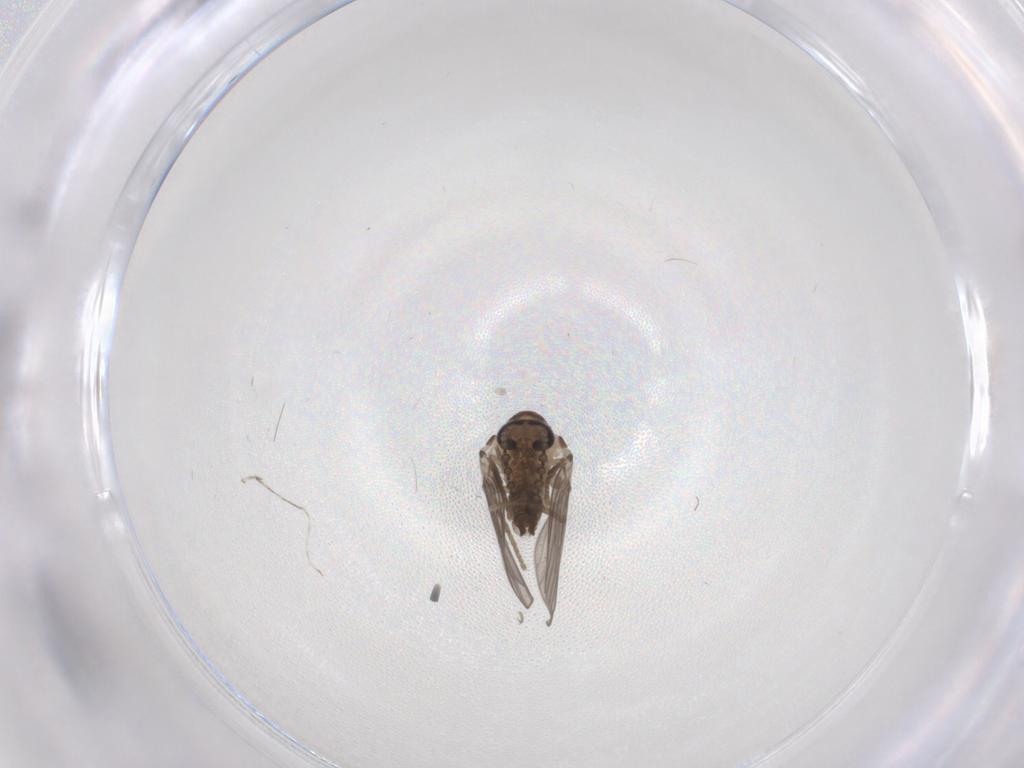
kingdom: Animalia
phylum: Arthropoda
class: Insecta
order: Diptera
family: Psychodidae
